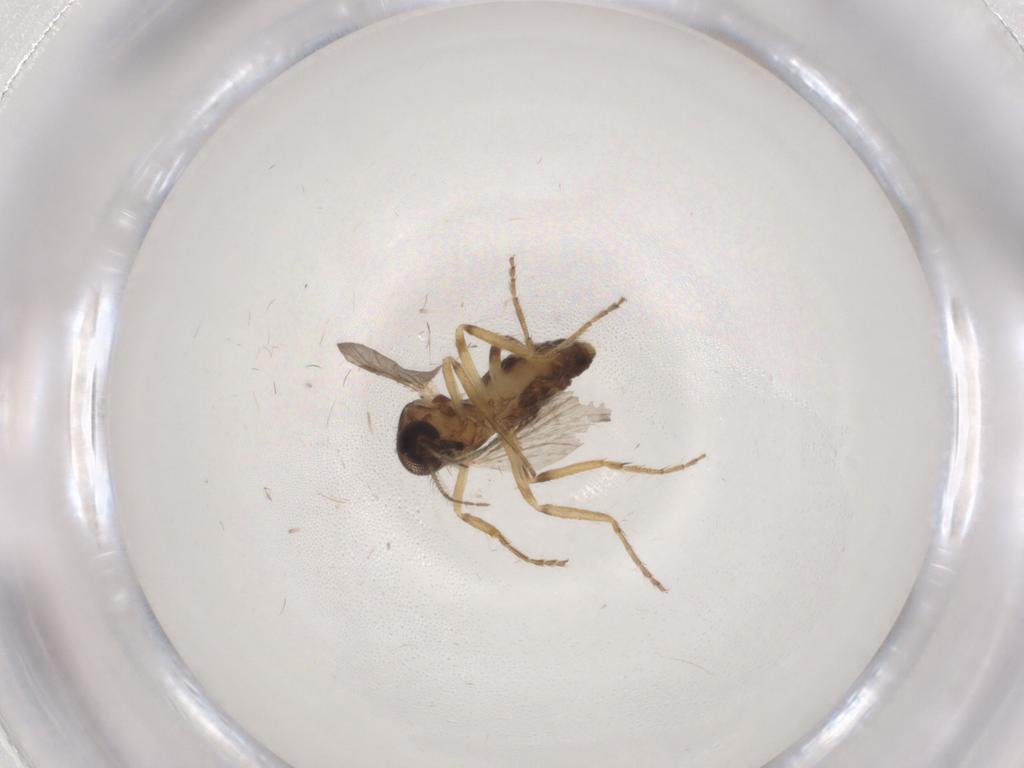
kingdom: Animalia
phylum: Arthropoda
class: Insecta
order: Diptera
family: Ceratopogonidae
